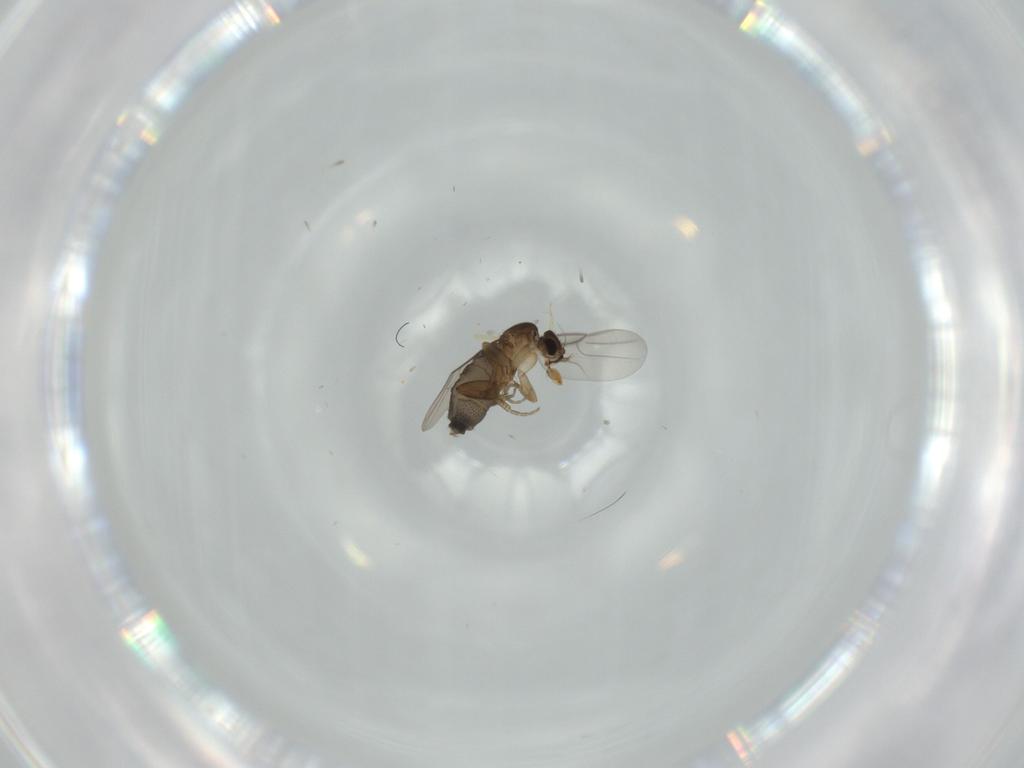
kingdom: Animalia
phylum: Arthropoda
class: Insecta
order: Diptera
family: Phoridae
